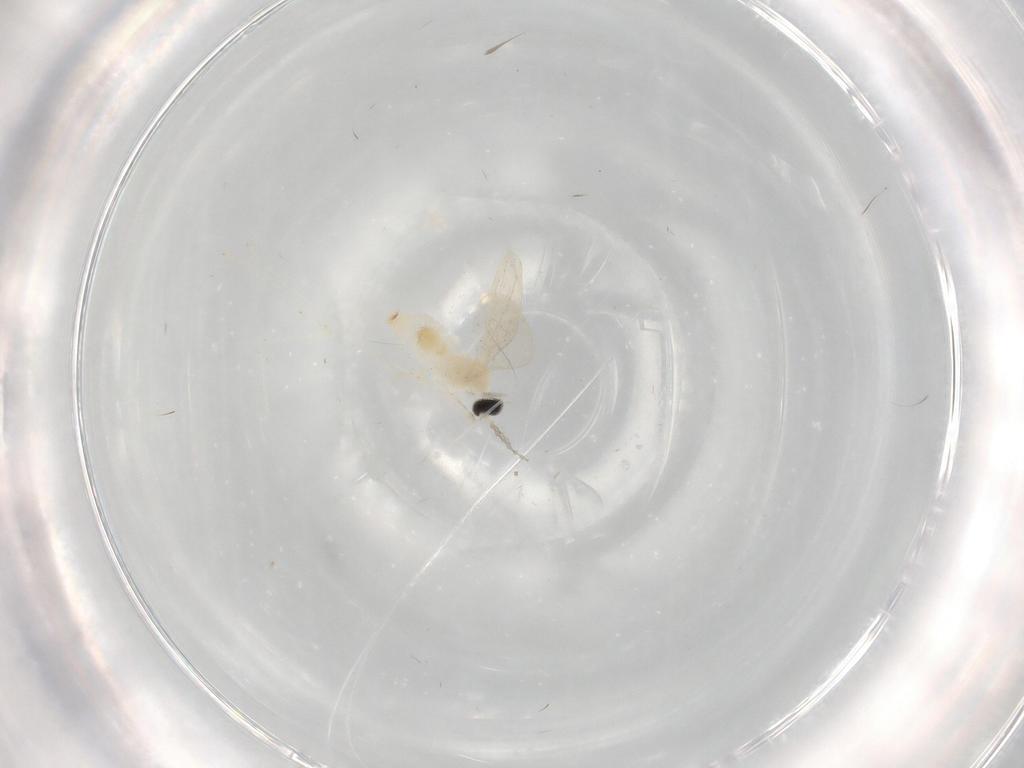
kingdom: Animalia
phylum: Arthropoda
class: Insecta
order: Diptera
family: Cecidomyiidae
